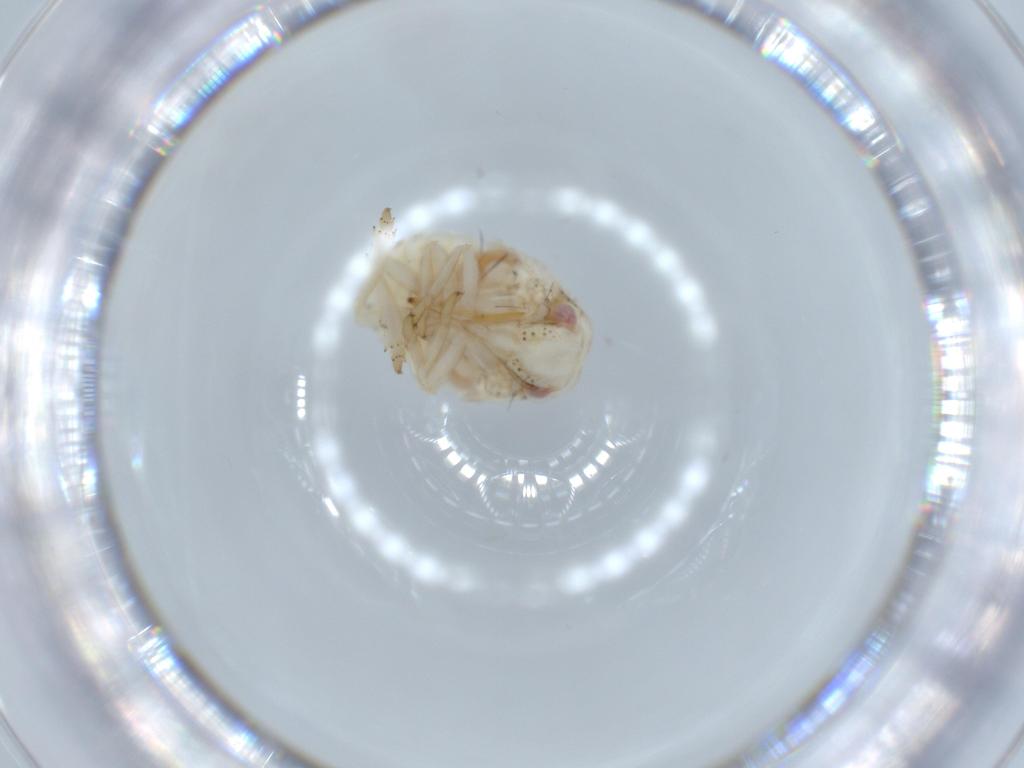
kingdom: Animalia
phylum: Arthropoda
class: Insecta
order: Hemiptera
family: Acanaloniidae
